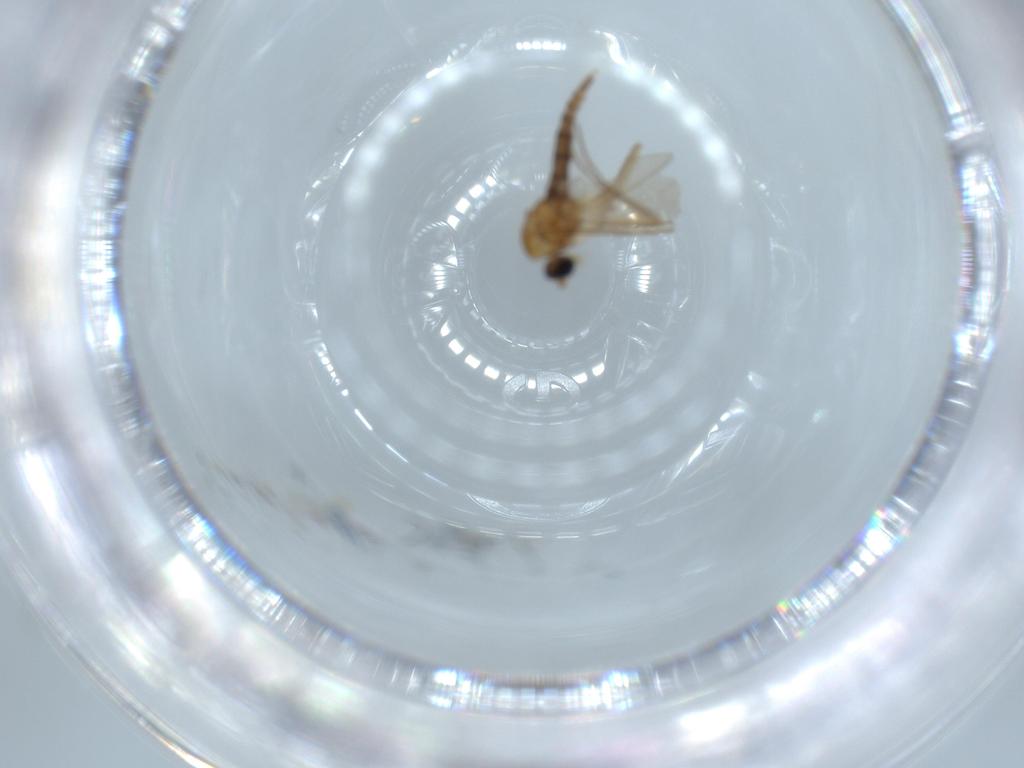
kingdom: Animalia
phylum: Arthropoda
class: Insecta
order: Diptera
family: Sciaridae
